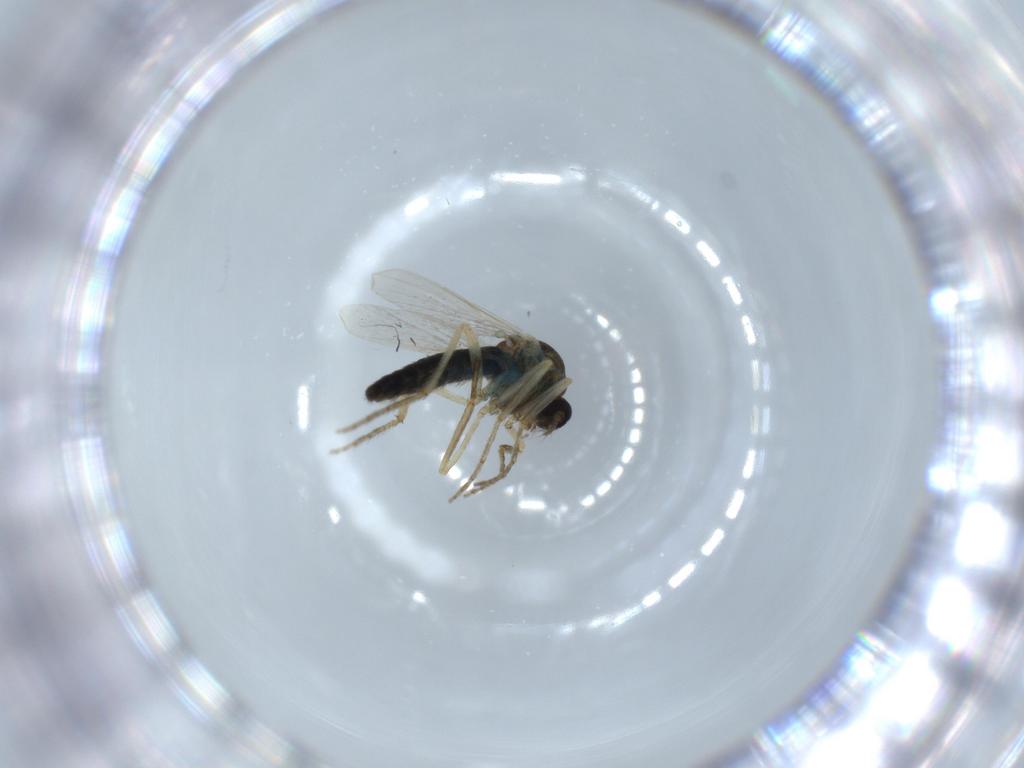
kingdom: Animalia
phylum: Arthropoda
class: Insecta
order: Diptera
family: Ceratopogonidae
